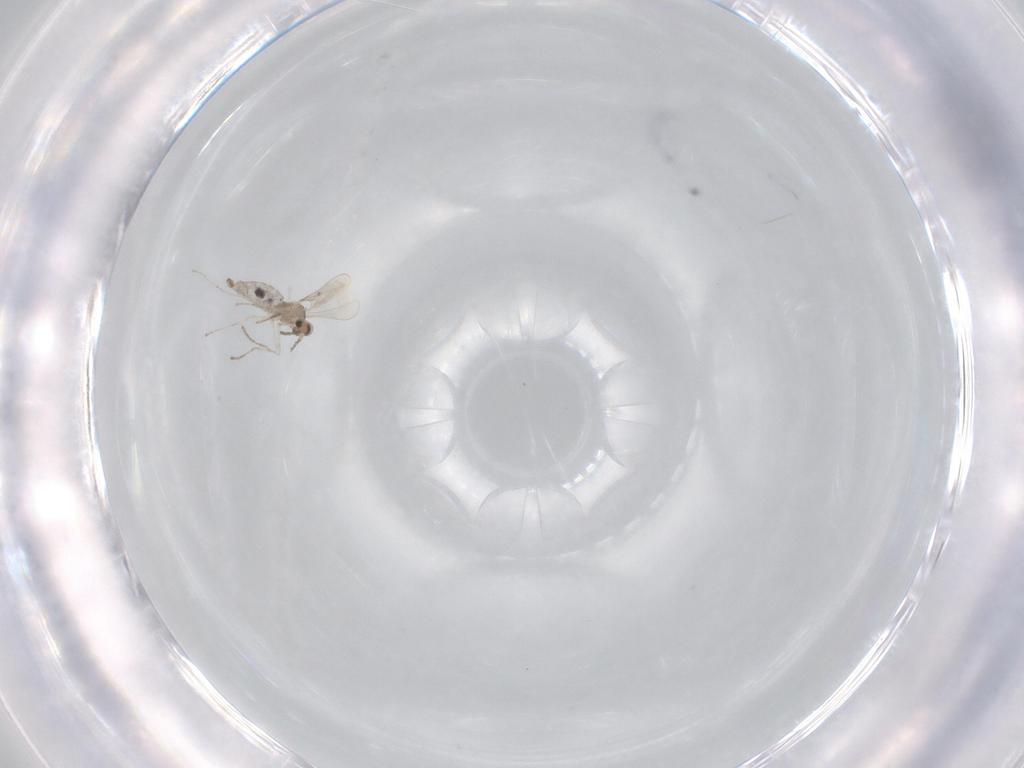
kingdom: Animalia
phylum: Arthropoda
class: Insecta
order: Diptera
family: Cecidomyiidae
